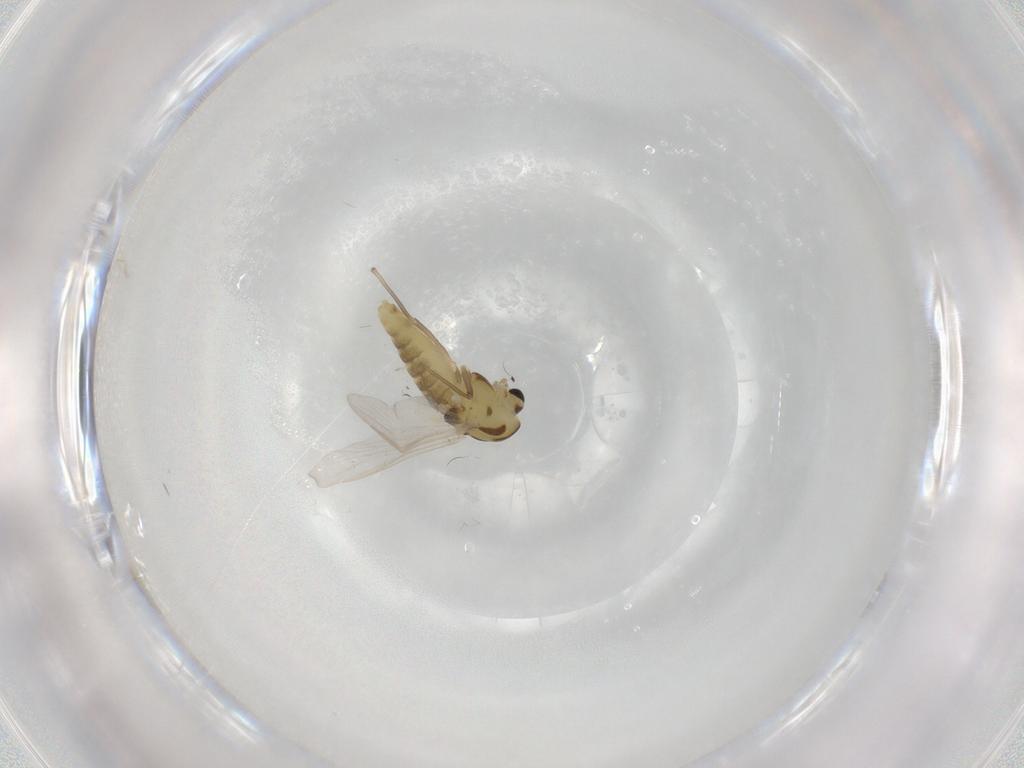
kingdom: Animalia
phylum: Arthropoda
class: Insecta
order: Diptera
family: Chironomidae
